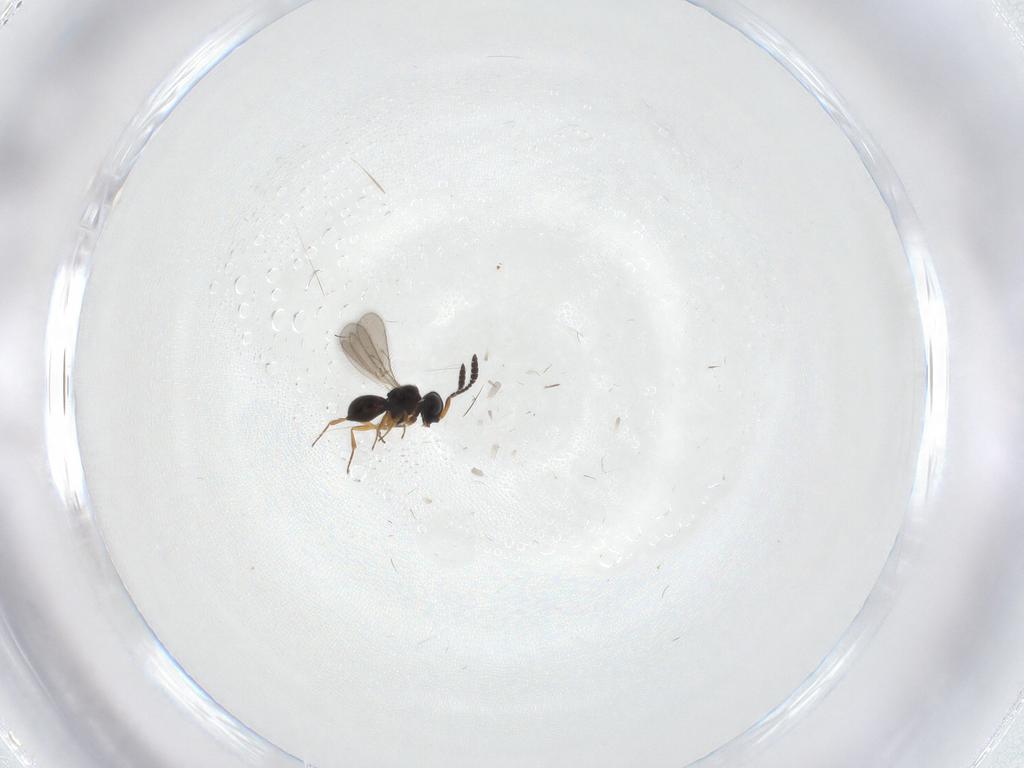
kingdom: Animalia
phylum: Arthropoda
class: Insecta
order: Hymenoptera
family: Scelionidae
